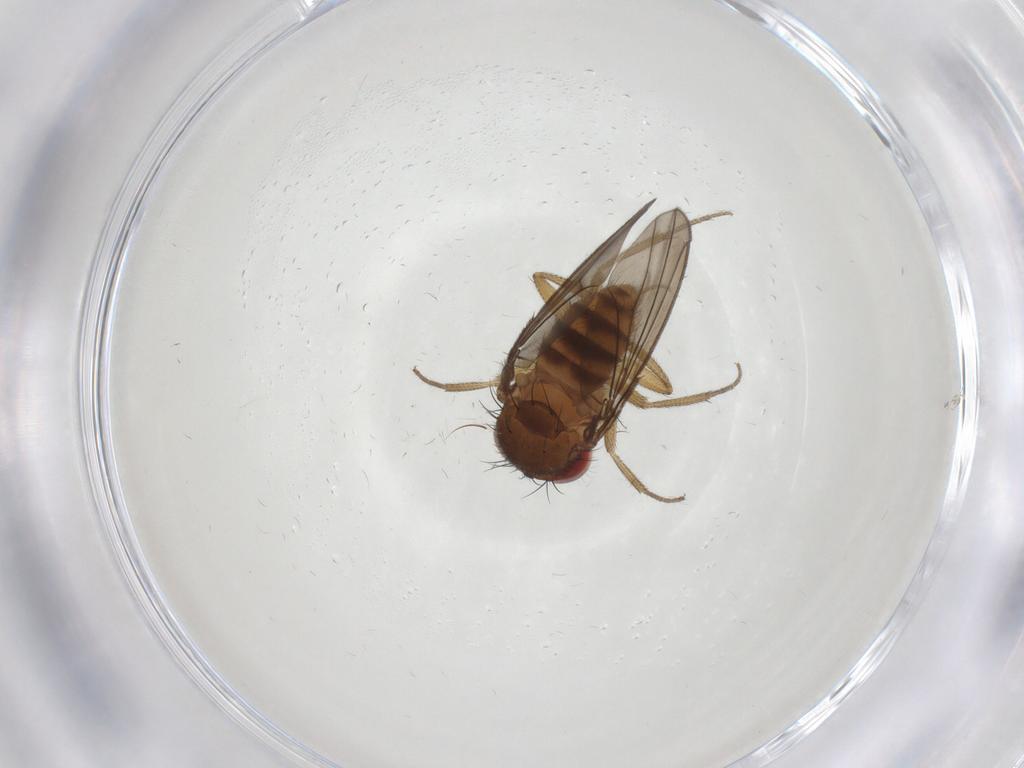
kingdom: Animalia
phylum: Arthropoda
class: Insecta
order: Diptera
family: Drosophilidae
